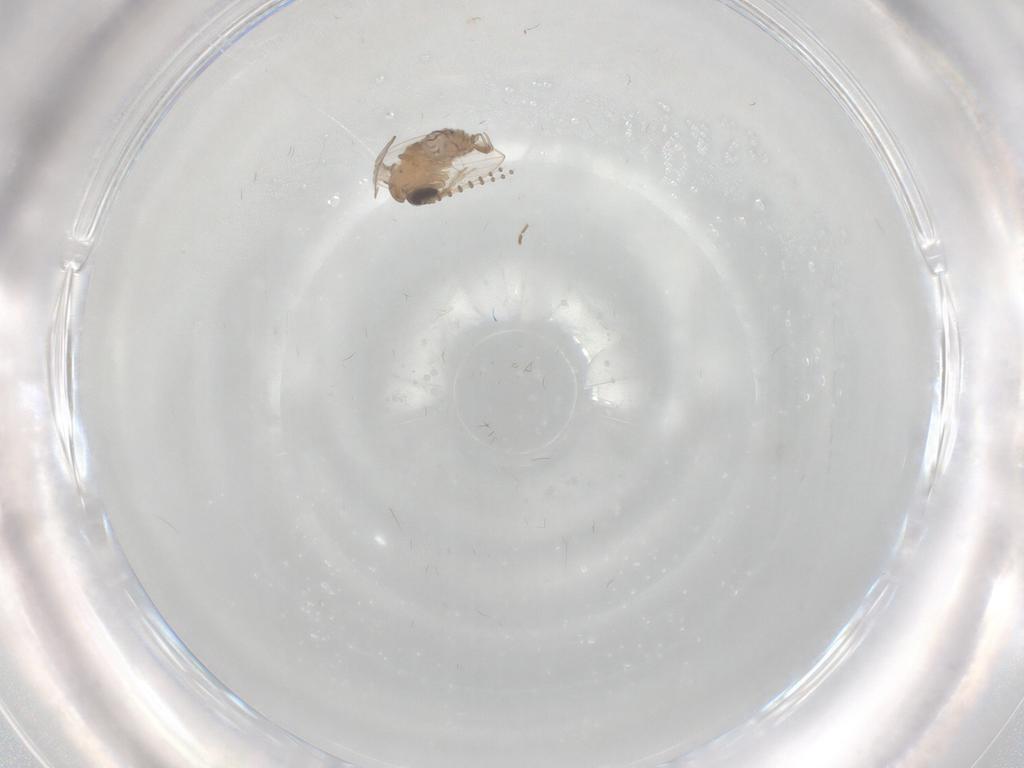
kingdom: Animalia
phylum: Arthropoda
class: Insecta
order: Diptera
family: Psychodidae
